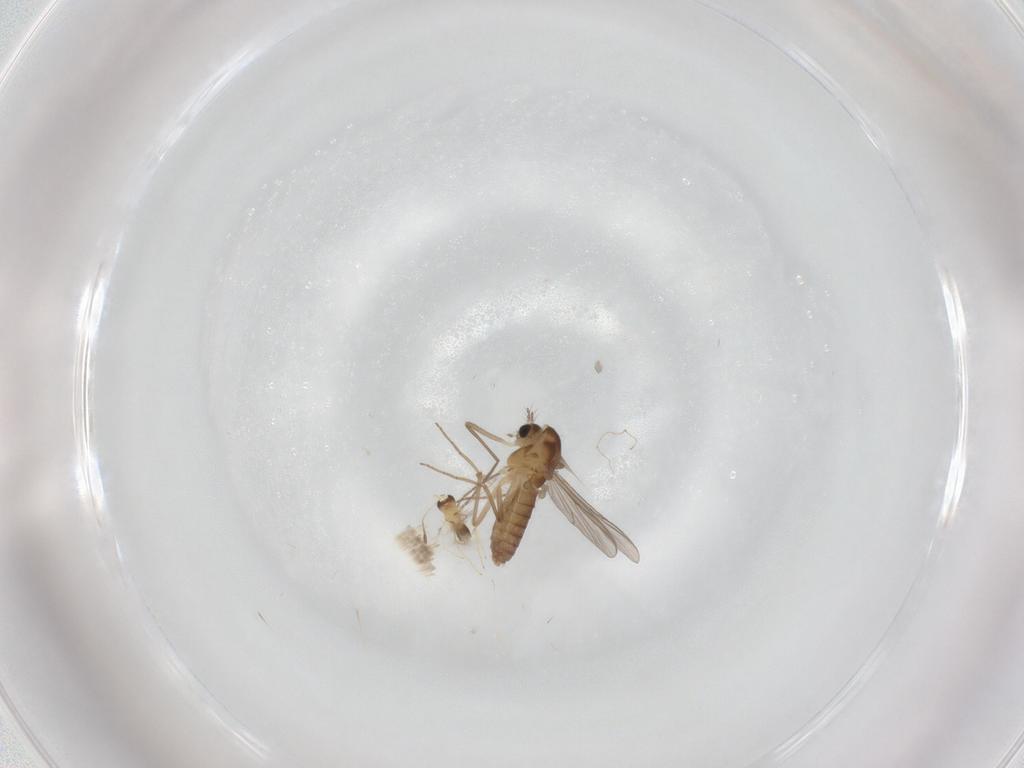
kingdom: Animalia
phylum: Arthropoda
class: Insecta
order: Diptera
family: Chironomidae
